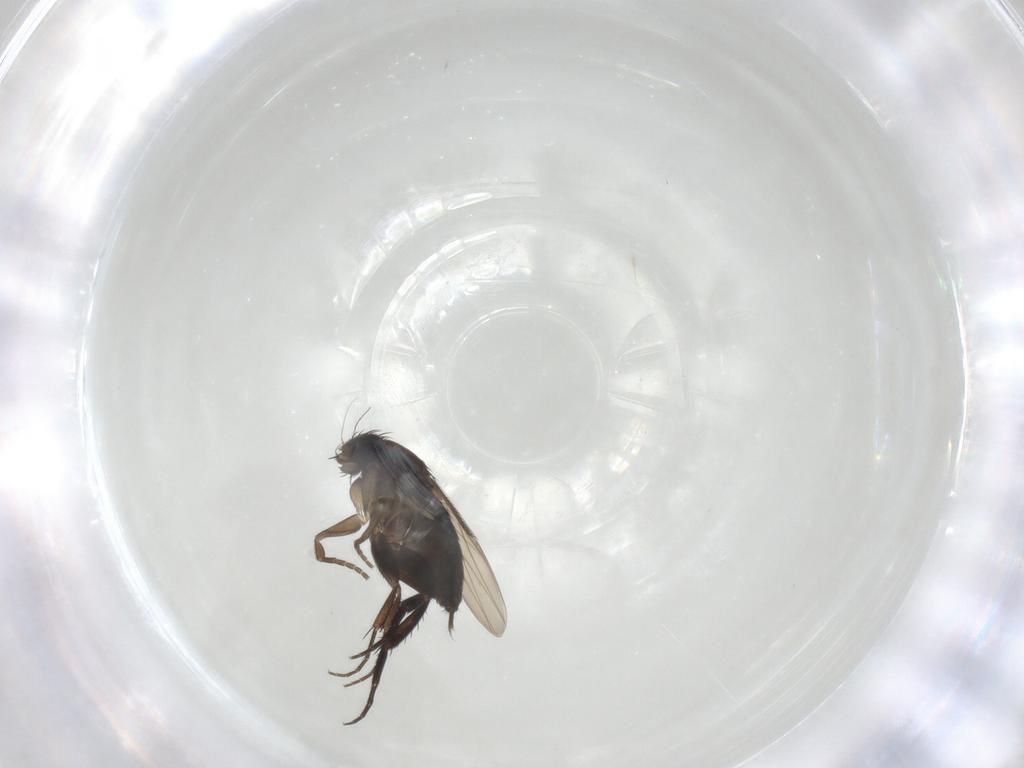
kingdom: Animalia
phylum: Arthropoda
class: Insecta
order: Diptera
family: Phoridae
